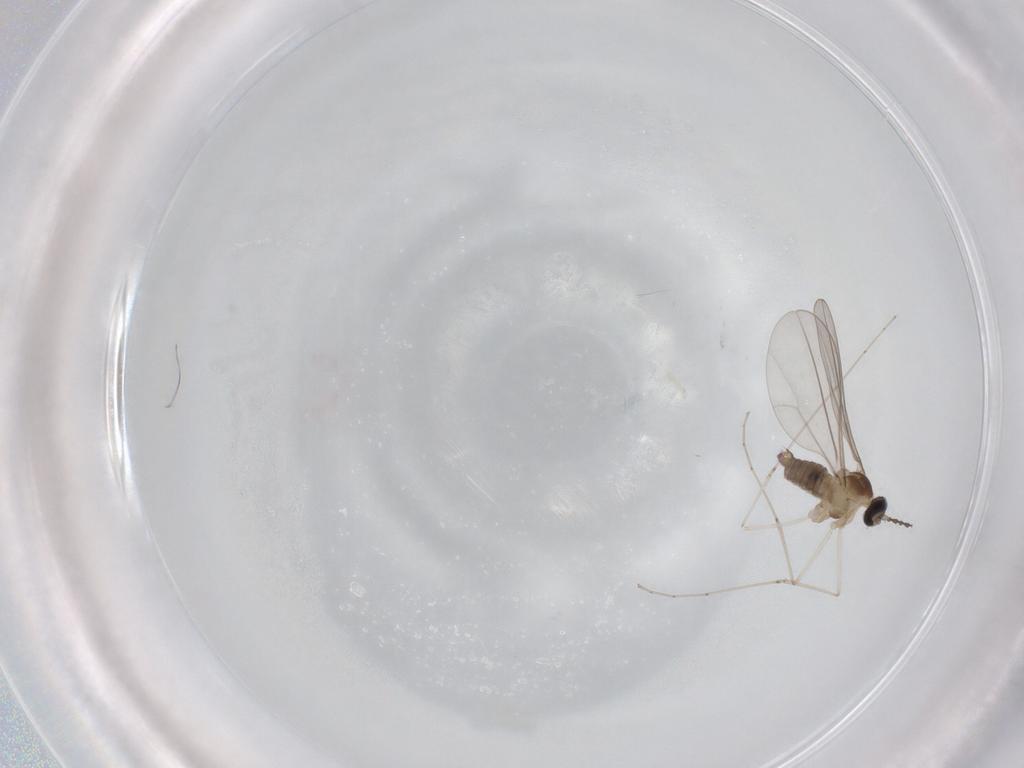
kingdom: Animalia
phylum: Arthropoda
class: Insecta
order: Diptera
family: Cecidomyiidae
